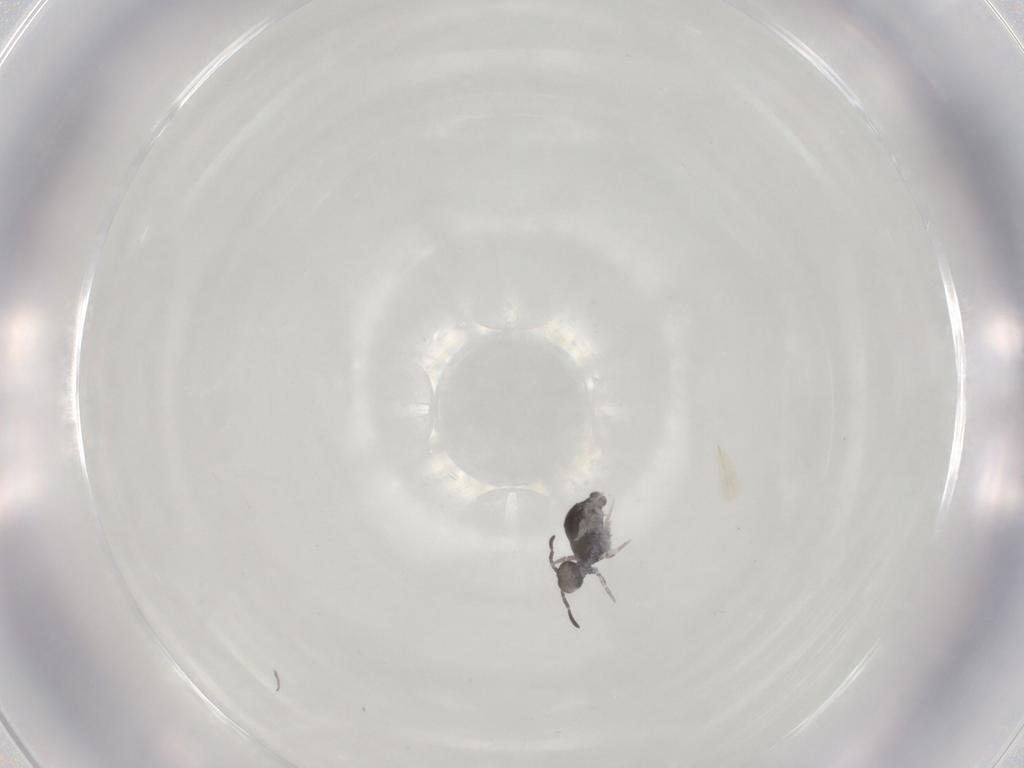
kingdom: Animalia
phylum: Arthropoda
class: Collembola
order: Symphypleona
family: Katiannidae
